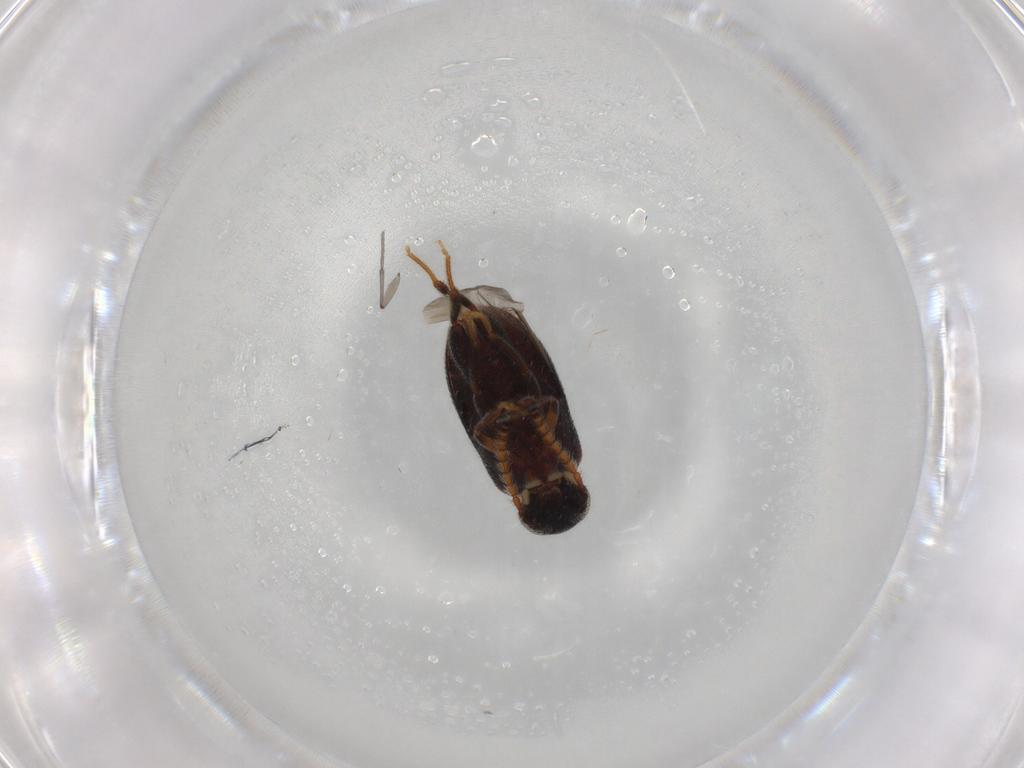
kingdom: Animalia
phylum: Arthropoda
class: Insecta
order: Coleoptera
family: Aderidae
